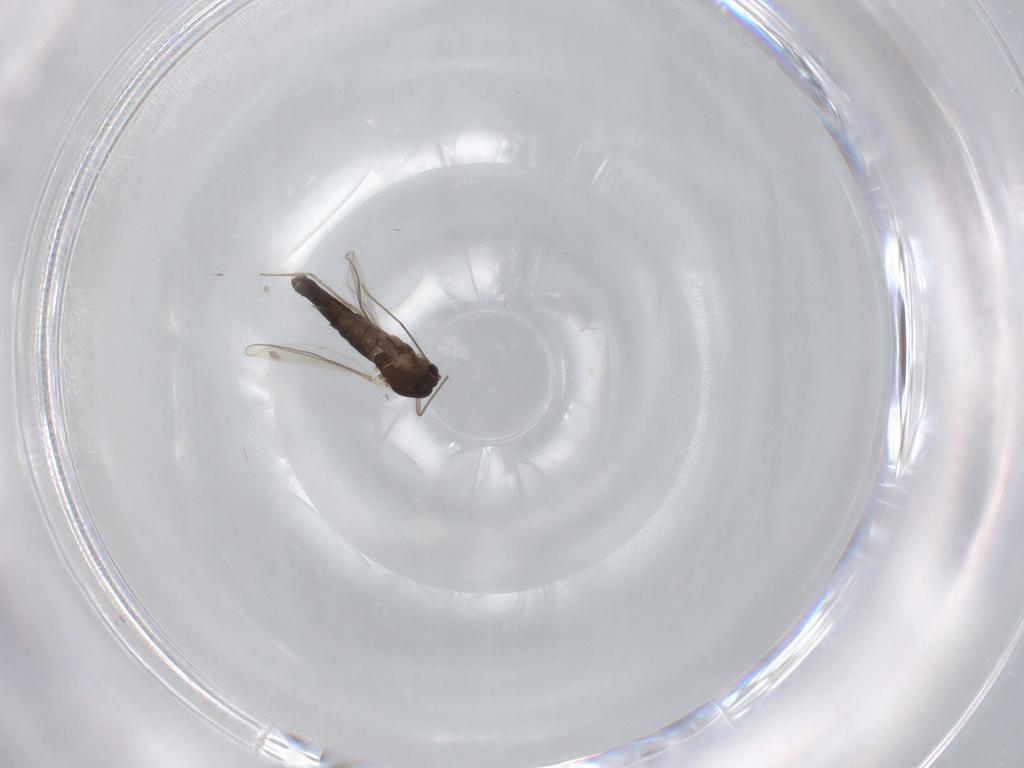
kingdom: Animalia
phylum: Arthropoda
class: Insecta
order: Diptera
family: Chironomidae
